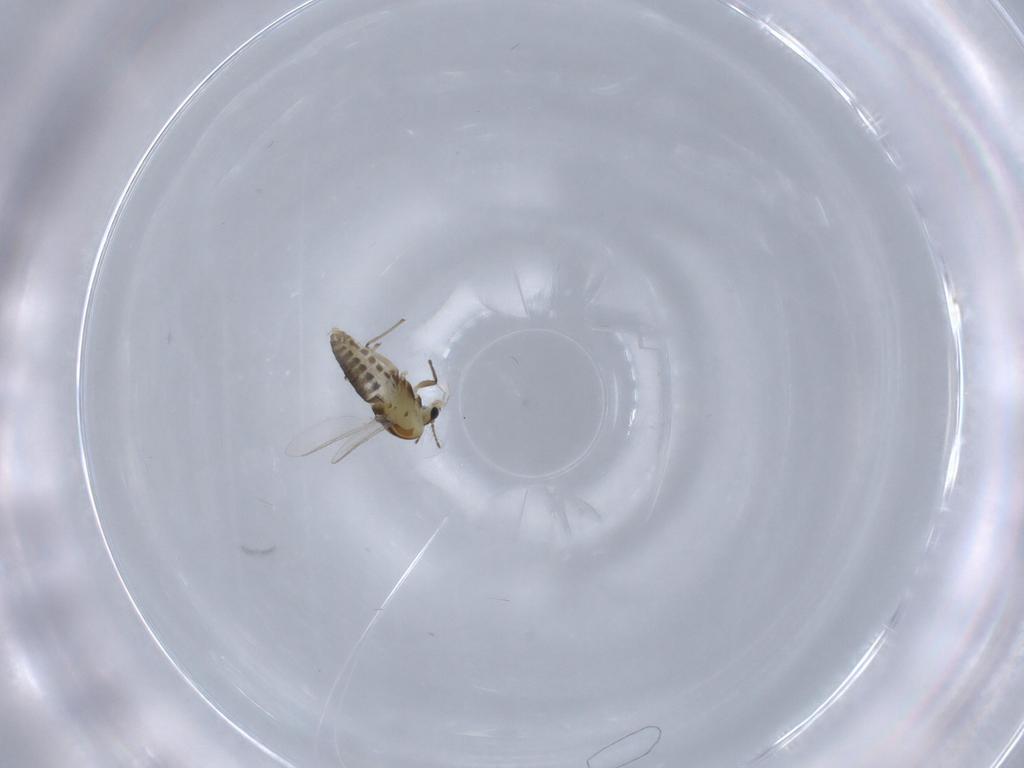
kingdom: Animalia
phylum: Arthropoda
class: Insecta
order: Diptera
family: Chironomidae
